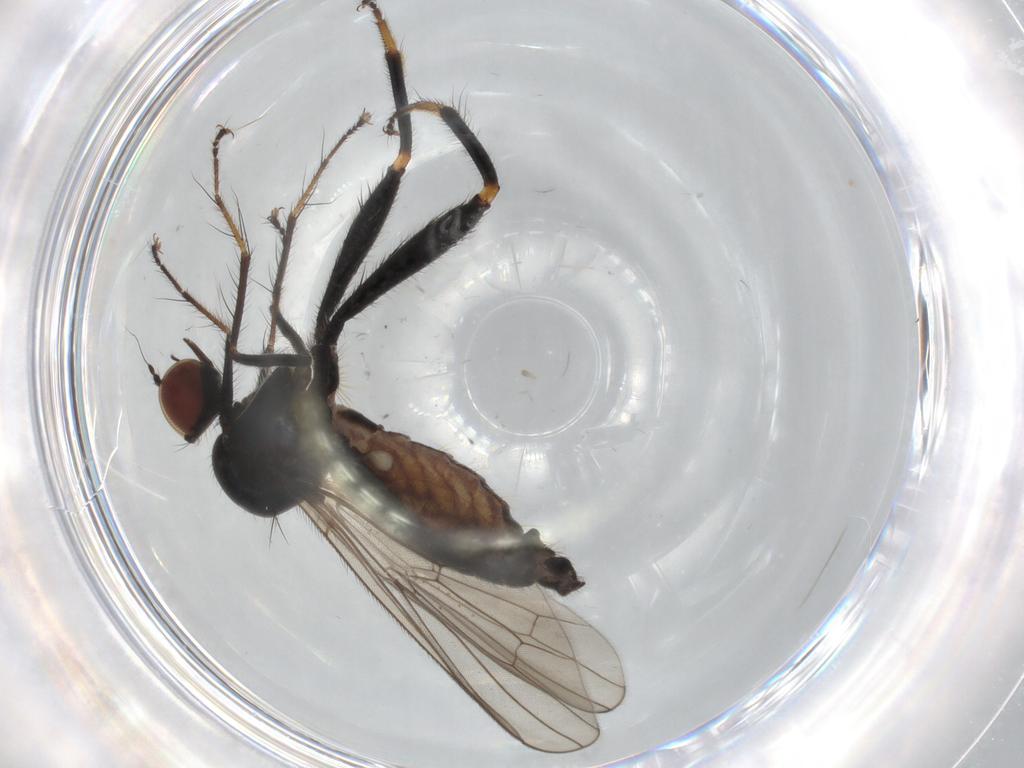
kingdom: Animalia
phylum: Arthropoda
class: Insecta
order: Diptera
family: Hybotidae
